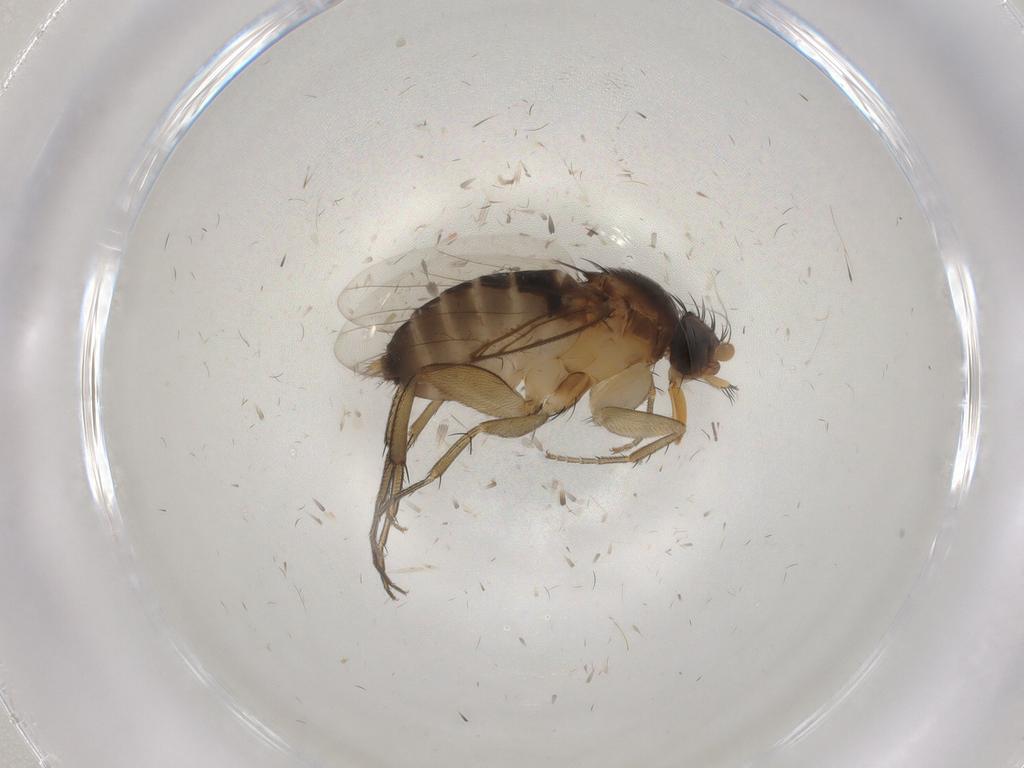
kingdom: Animalia
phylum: Arthropoda
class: Insecta
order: Diptera
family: Phoridae
